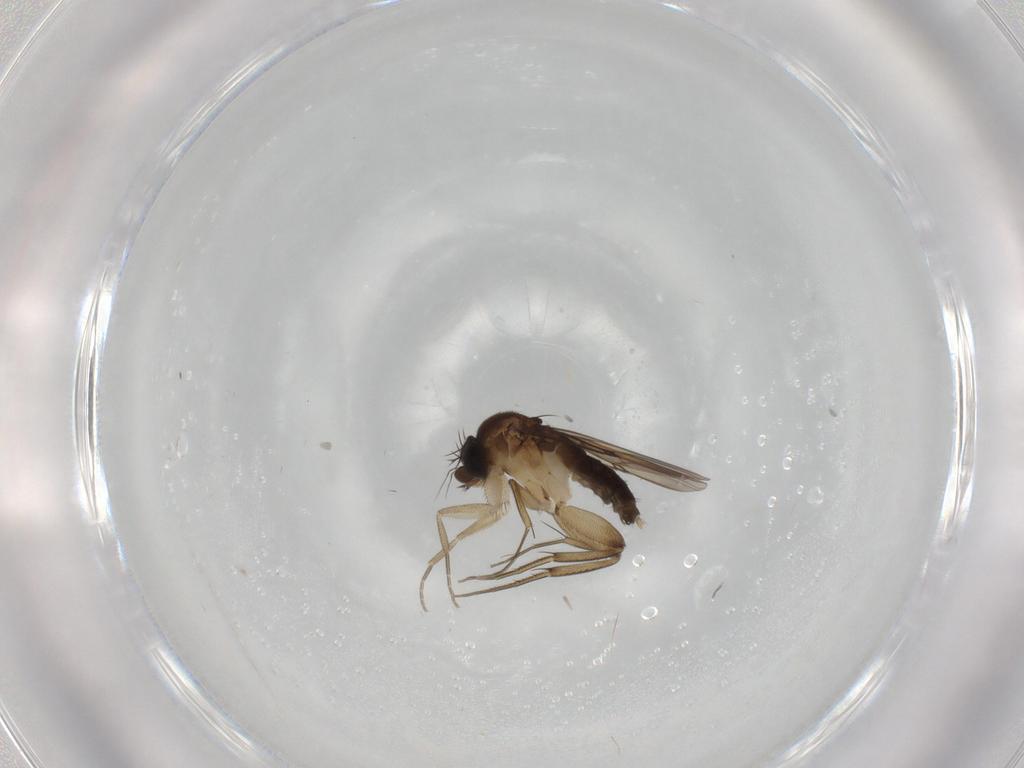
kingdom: Animalia
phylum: Arthropoda
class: Insecta
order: Diptera
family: Phoridae
